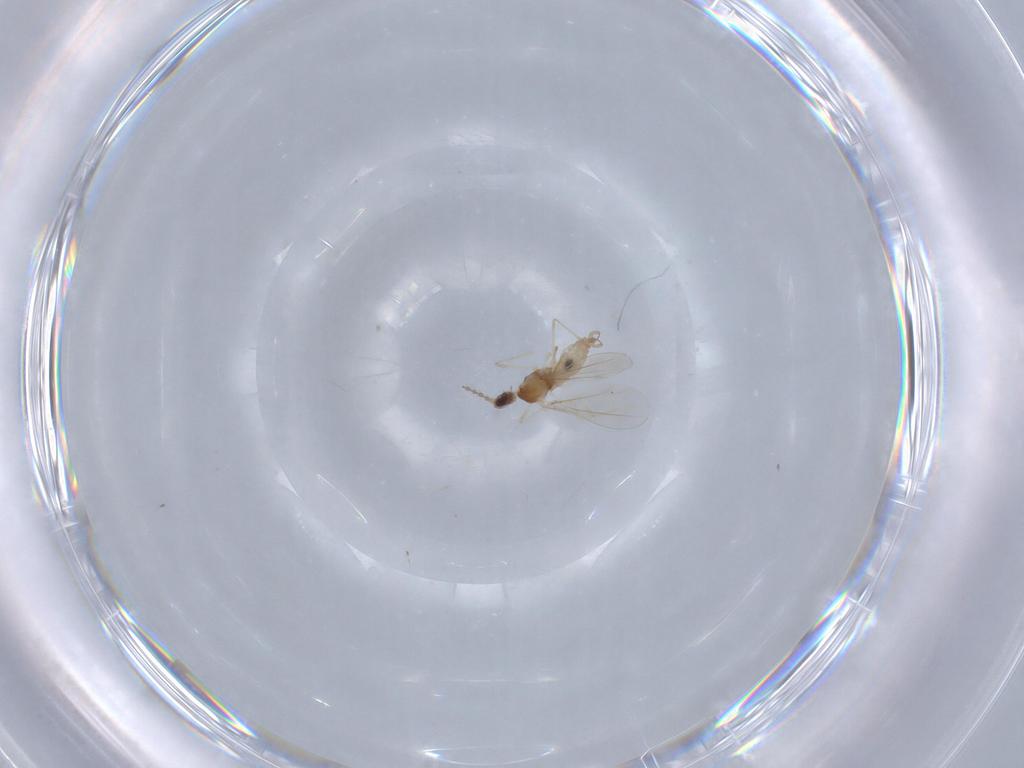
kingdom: Animalia
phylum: Arthropoda
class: Insecta
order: Diptera
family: Cecidomyiidae
